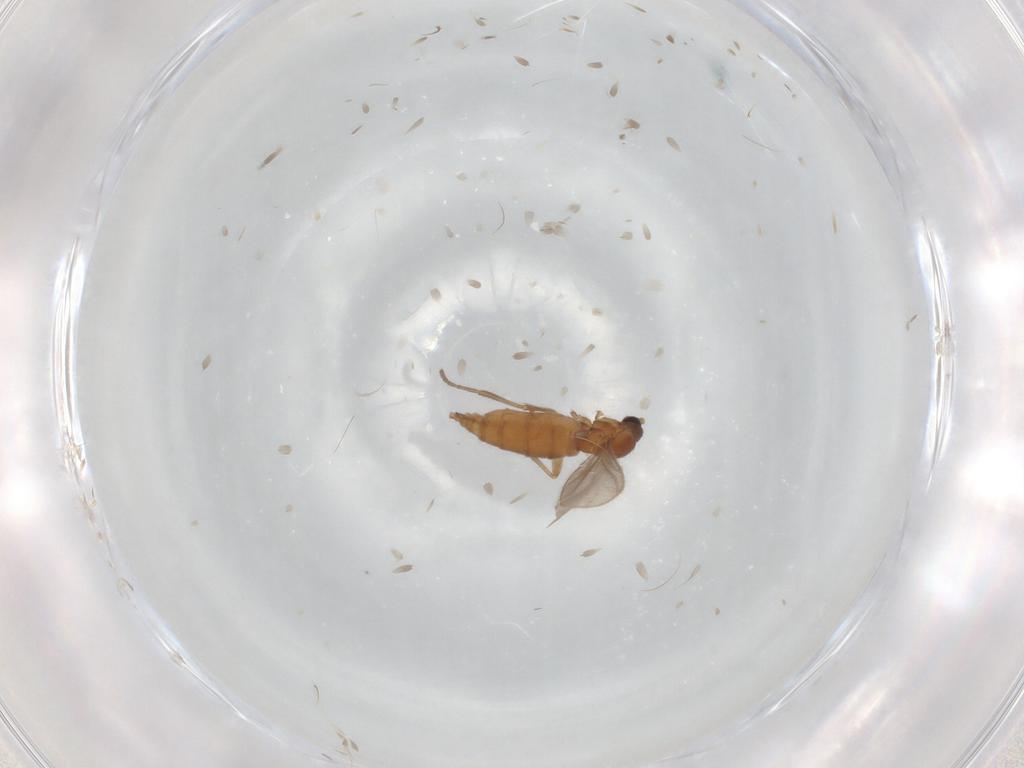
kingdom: Animalia
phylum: Arthropoda
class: Insecta
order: Diptera
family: Sciaridae
